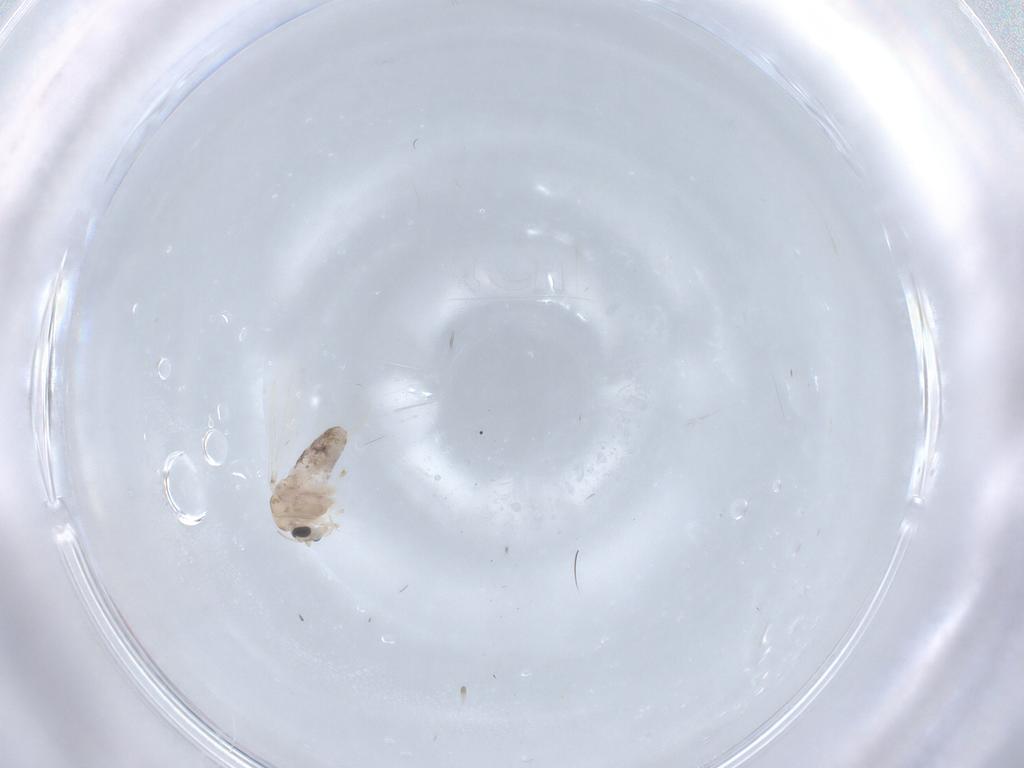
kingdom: Animalia
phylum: Arthropoda
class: Insecta
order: Diptera
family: Chironomidae
